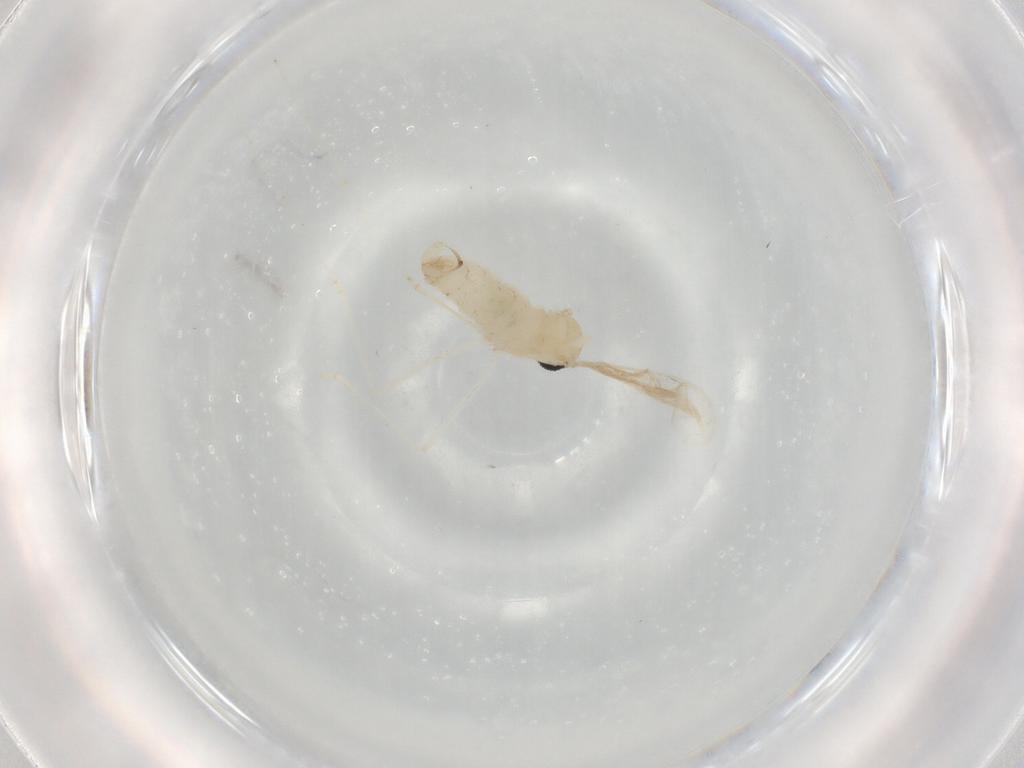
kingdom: Animalia
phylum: Arthropoda
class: Insecta
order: Diptera
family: Cecidomyiidae
